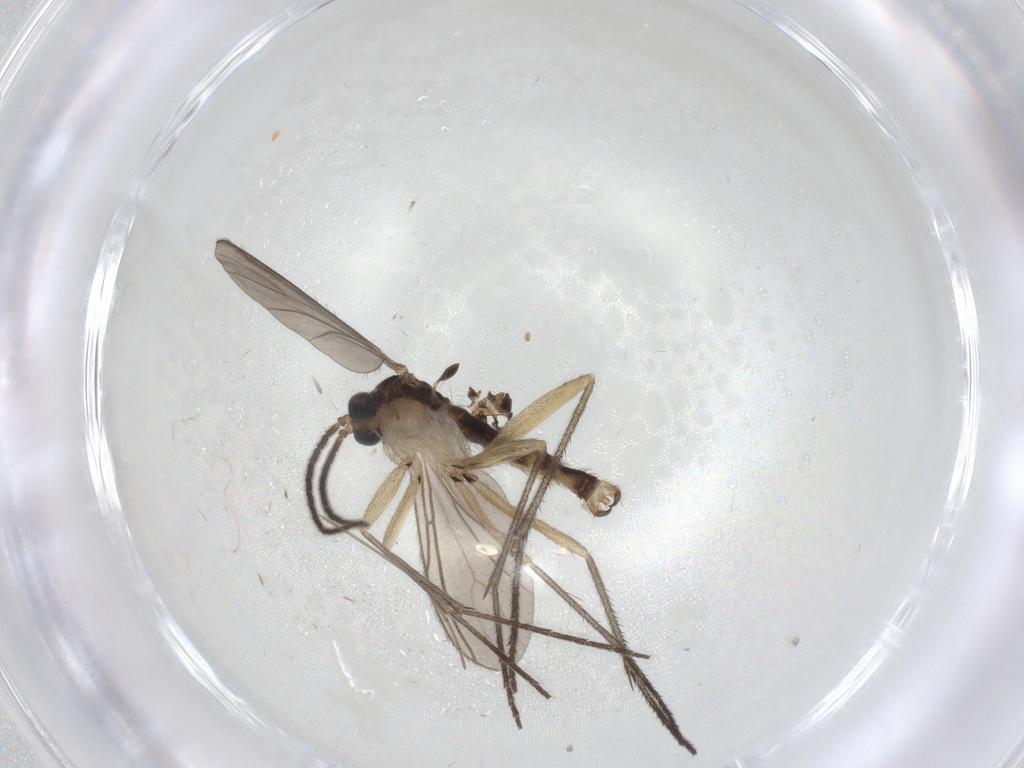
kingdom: Animalia
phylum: Arthropoda
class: Insecta
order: Diptera
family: Sciaridae
